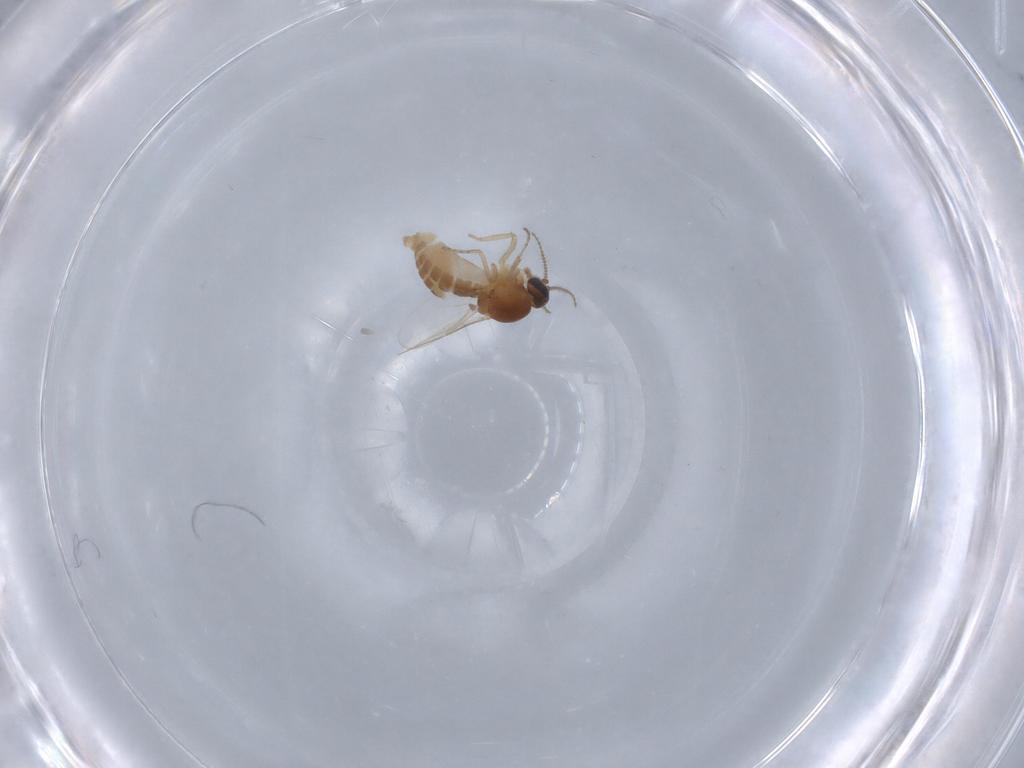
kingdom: Animalia
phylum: Arthropoda
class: Insecta
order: Diptera
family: Ceratopogonidae
